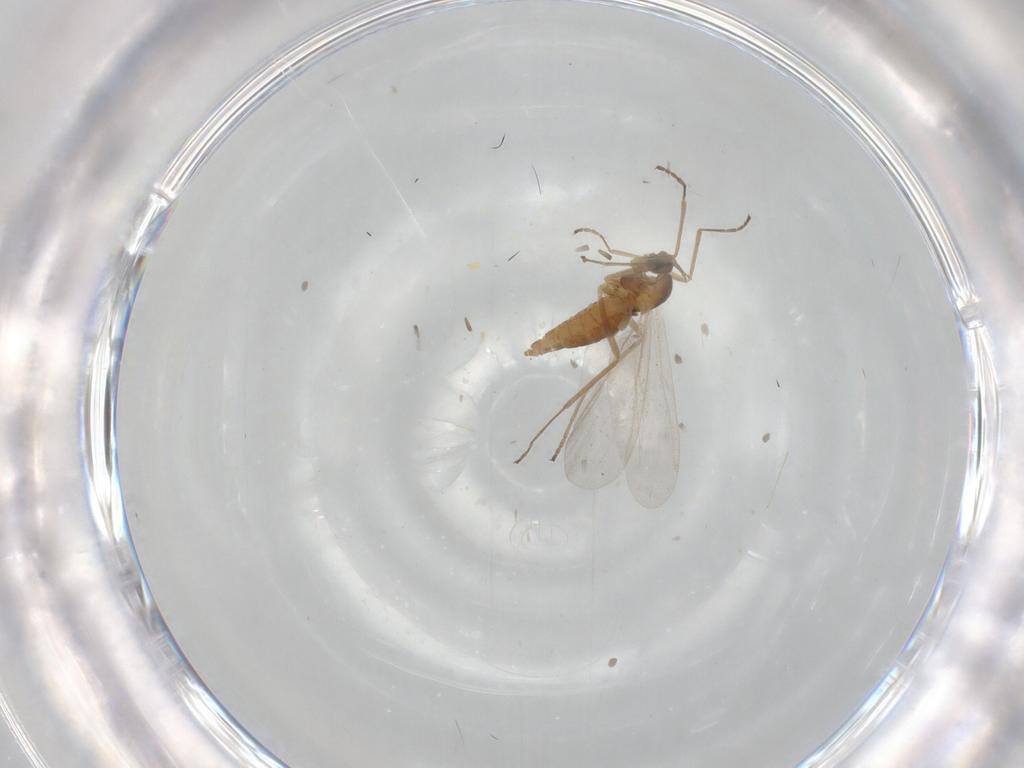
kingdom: Animalia
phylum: Arthropoda
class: Insecta
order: Diptera
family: Cecidomyiidae
